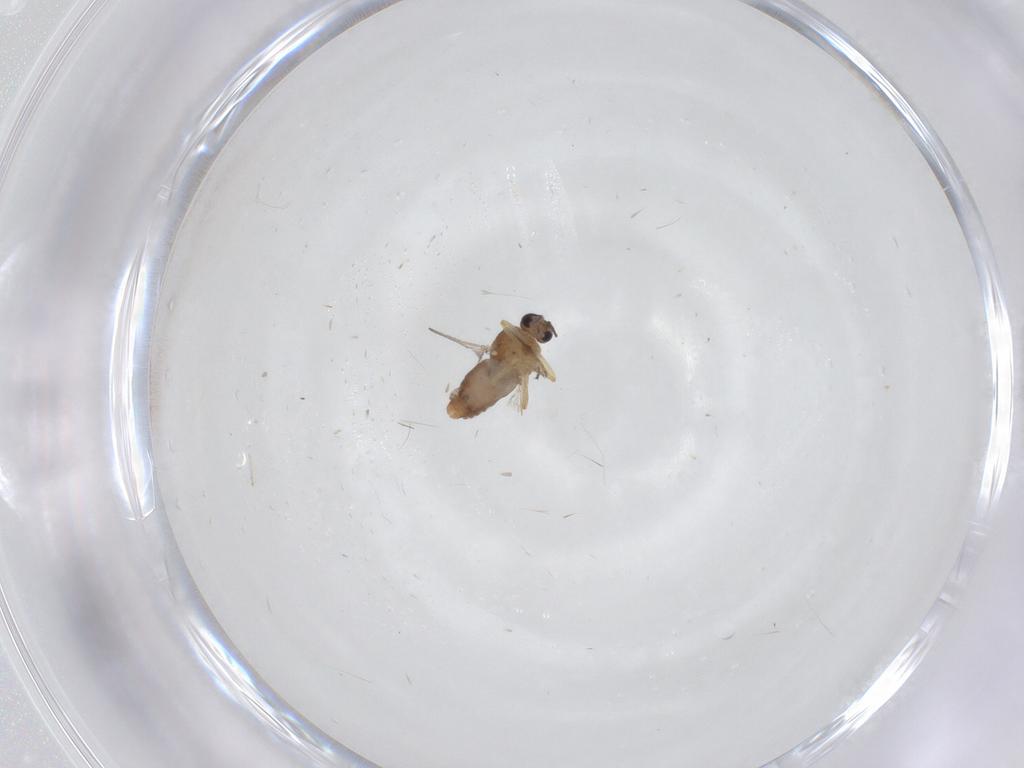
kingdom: Animalia
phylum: Arthropoda
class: Insecta
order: Diptera
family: Ceratopogonidae
